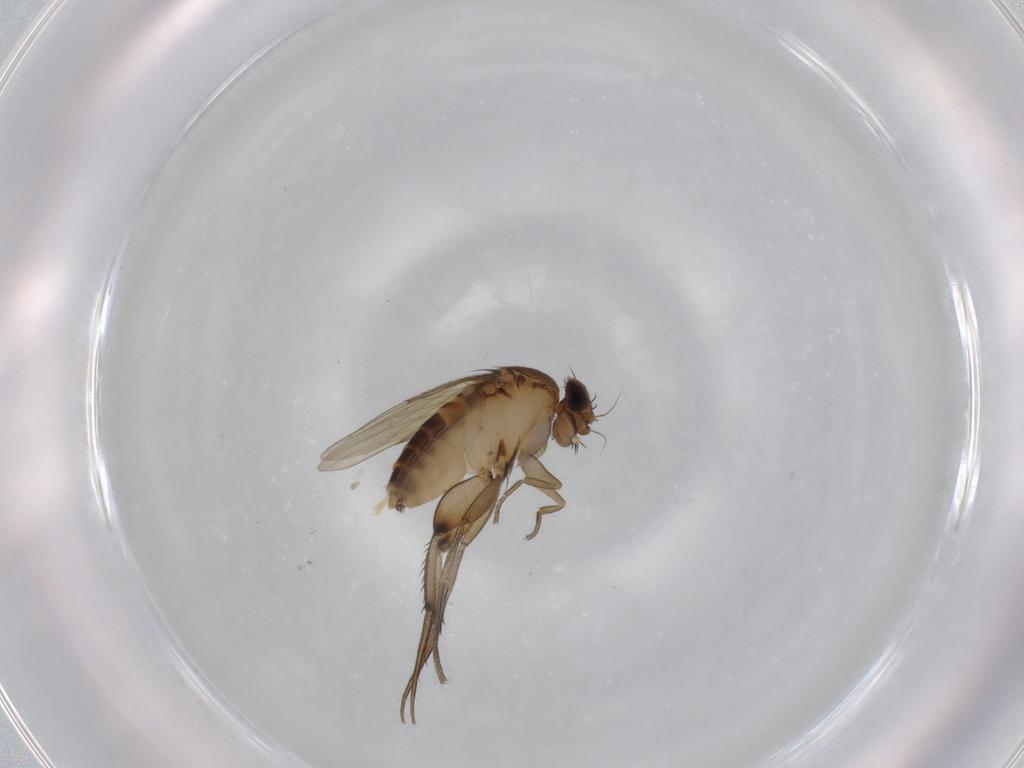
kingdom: Animalia
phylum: Arthropoda
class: Insecta
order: Diptera
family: Phoridae
